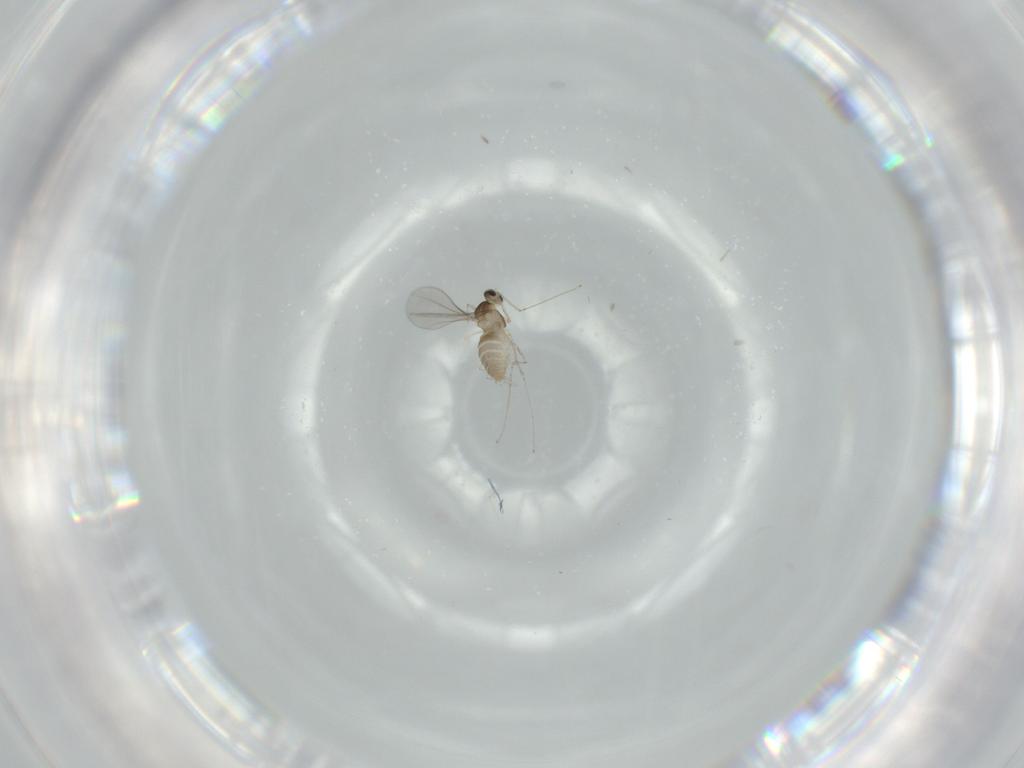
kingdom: Animalia
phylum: Arthropoda
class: Insecta
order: Diptera
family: Cecidomyiidae
